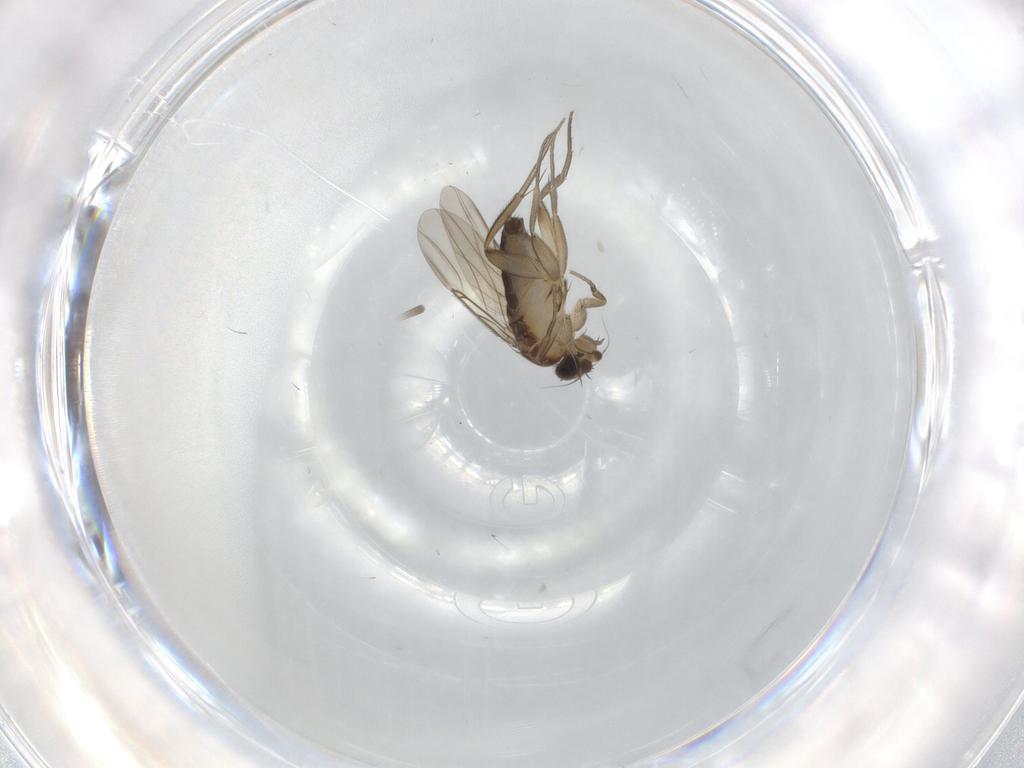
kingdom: Animalia
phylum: Arthropoda
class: Insecta
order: Diptera
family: Phoridae
